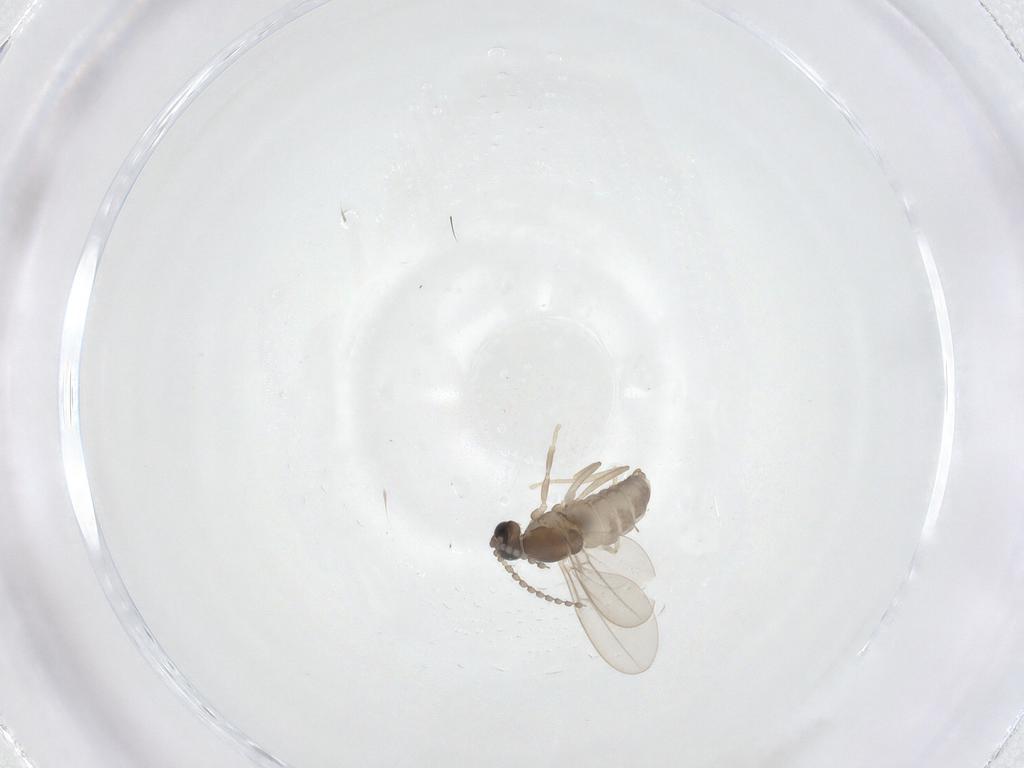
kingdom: Animalia
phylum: Arthropoda
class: Insecta
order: Diptera
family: Cecidomyiidae
